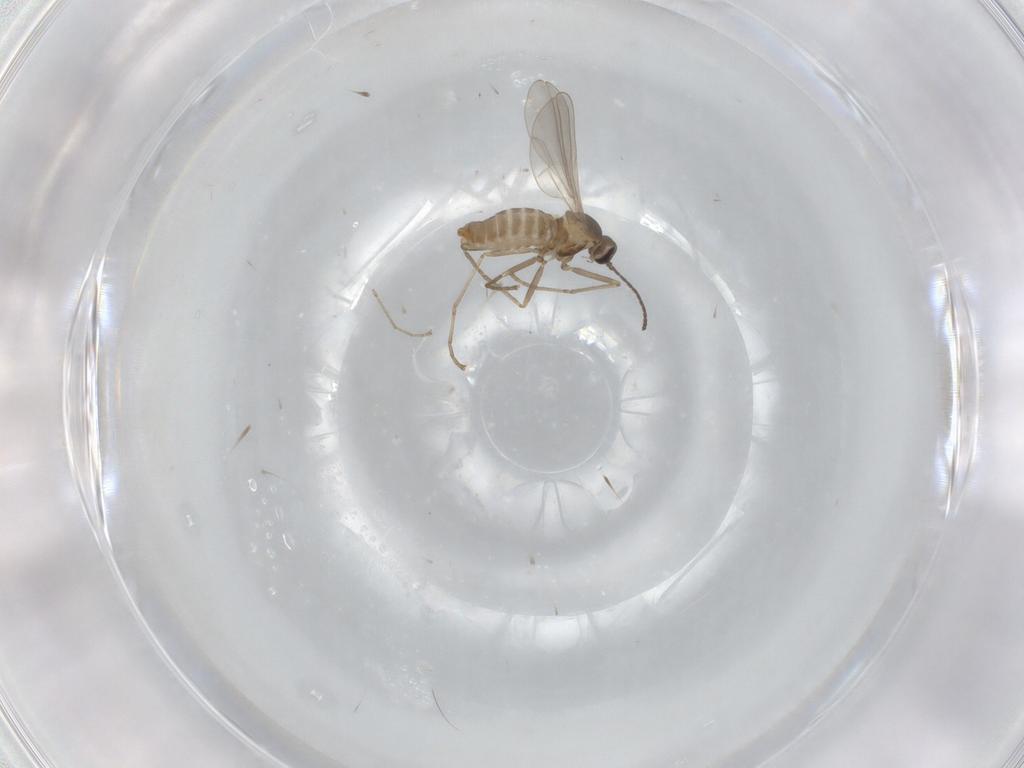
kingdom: Animalia
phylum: Arthropoda
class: Insecta
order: Diptera
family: Cecidomyiidae
